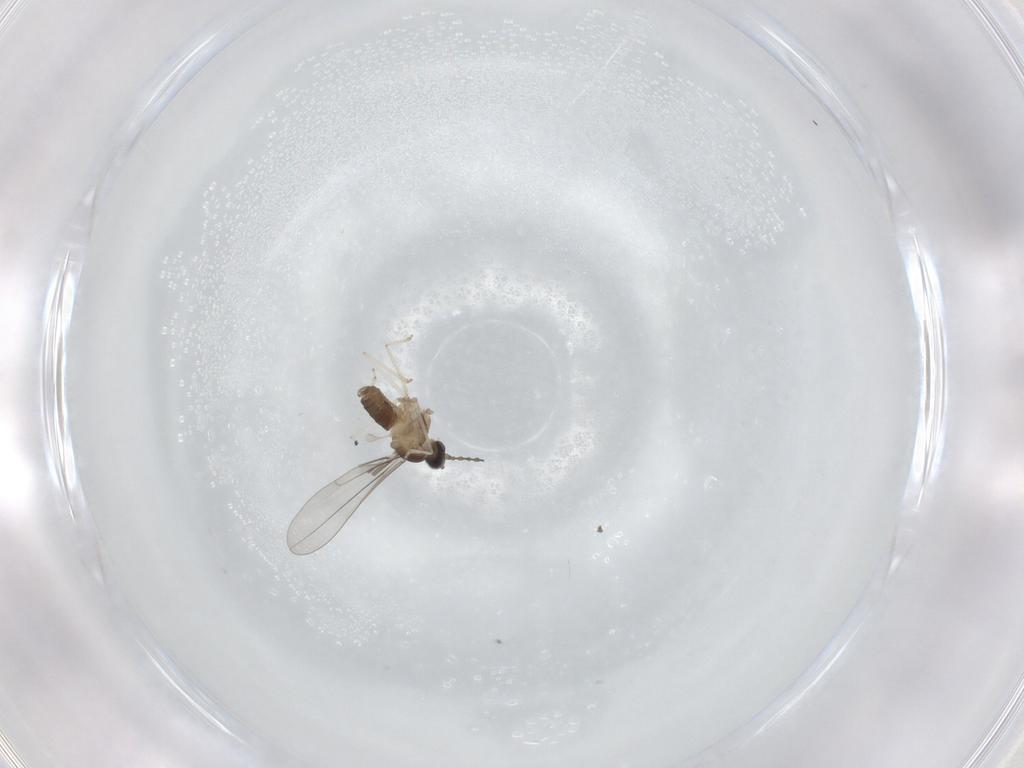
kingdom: Animalia
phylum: Arthropoda
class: Insecta
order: Diptera
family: Cecidomyiidae
